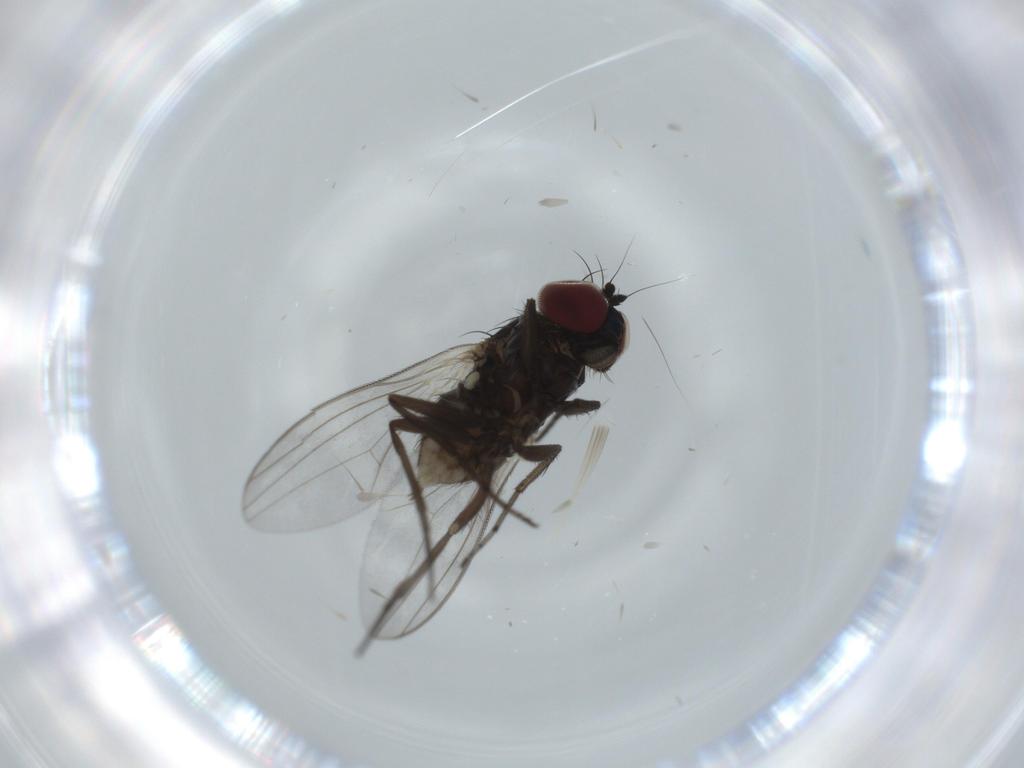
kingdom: Animalia
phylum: Arthropoda
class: Insecta
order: Diptera
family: Dolichopodidae
